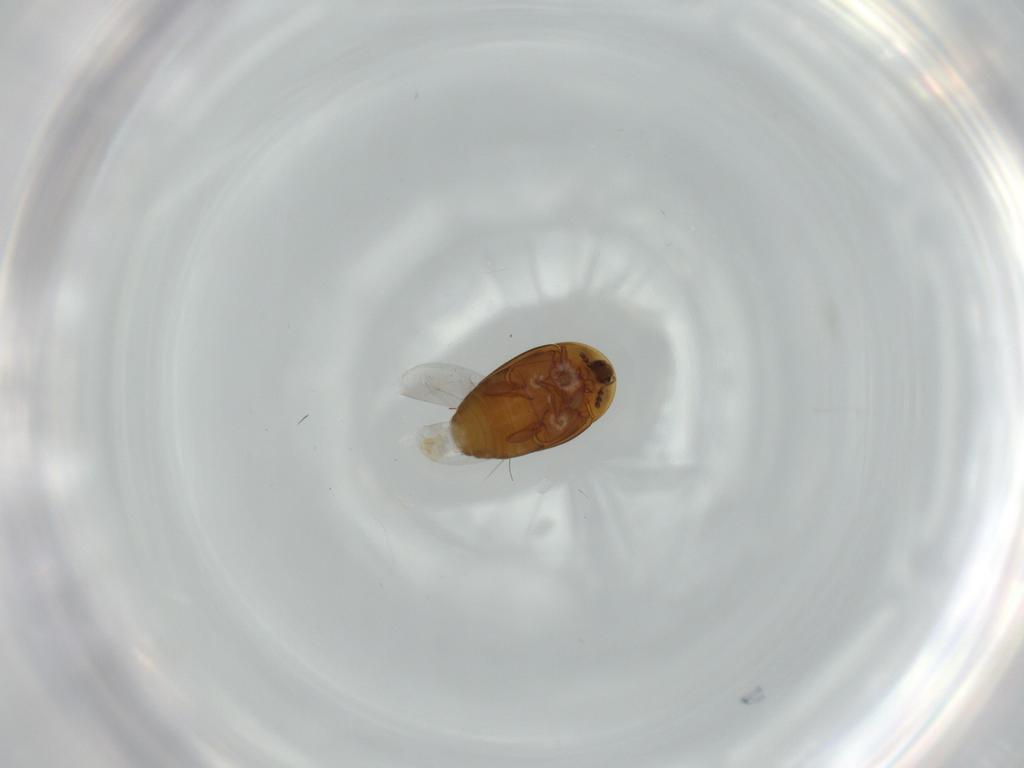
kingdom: Animalia
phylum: Arthropoda
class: Insecta
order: Coleoptera
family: Corylophidae
